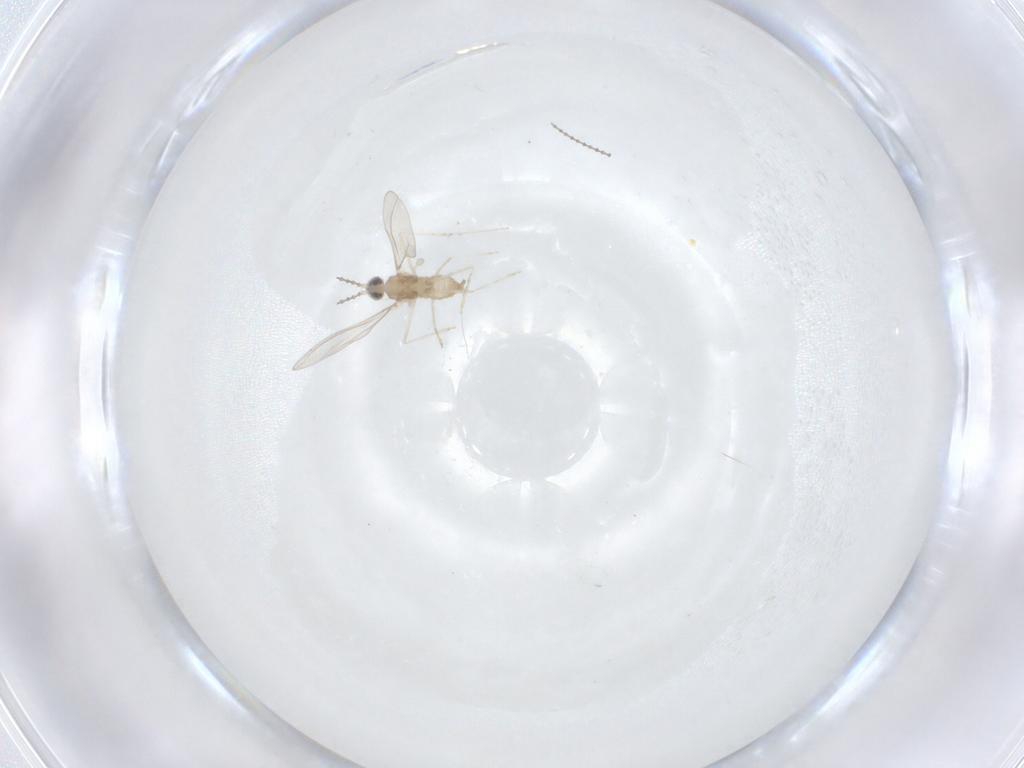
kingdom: Animalia
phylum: Arthropoda
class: Insecta
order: Diptera
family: Cecidomyiidae
